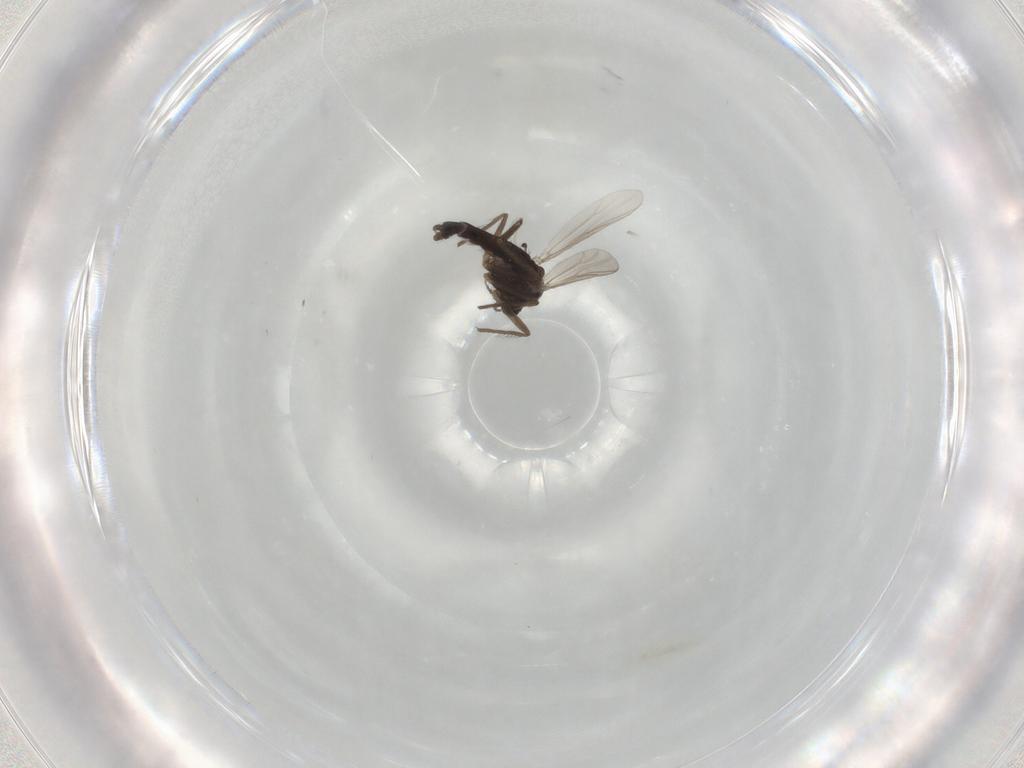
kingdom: Animalia
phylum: Arthropoda
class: Insecta
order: Diptera
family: Chironomidae
